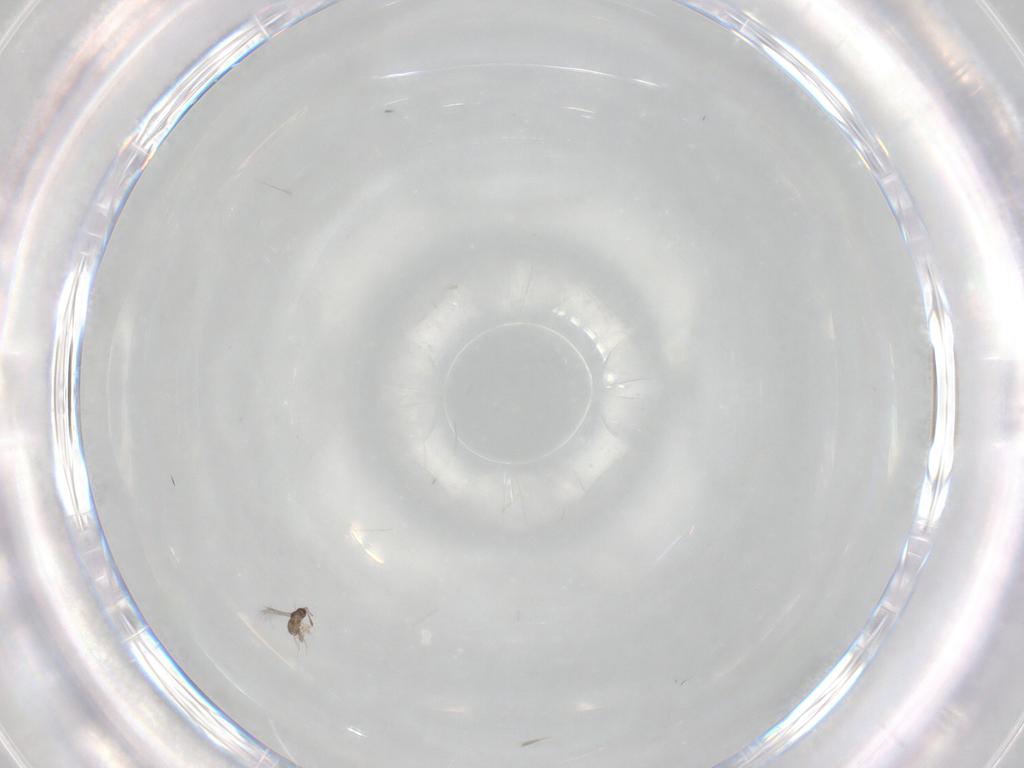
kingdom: Animalia
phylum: Arthropoda
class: Insecta
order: Hymenoptera
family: Mymaridae
